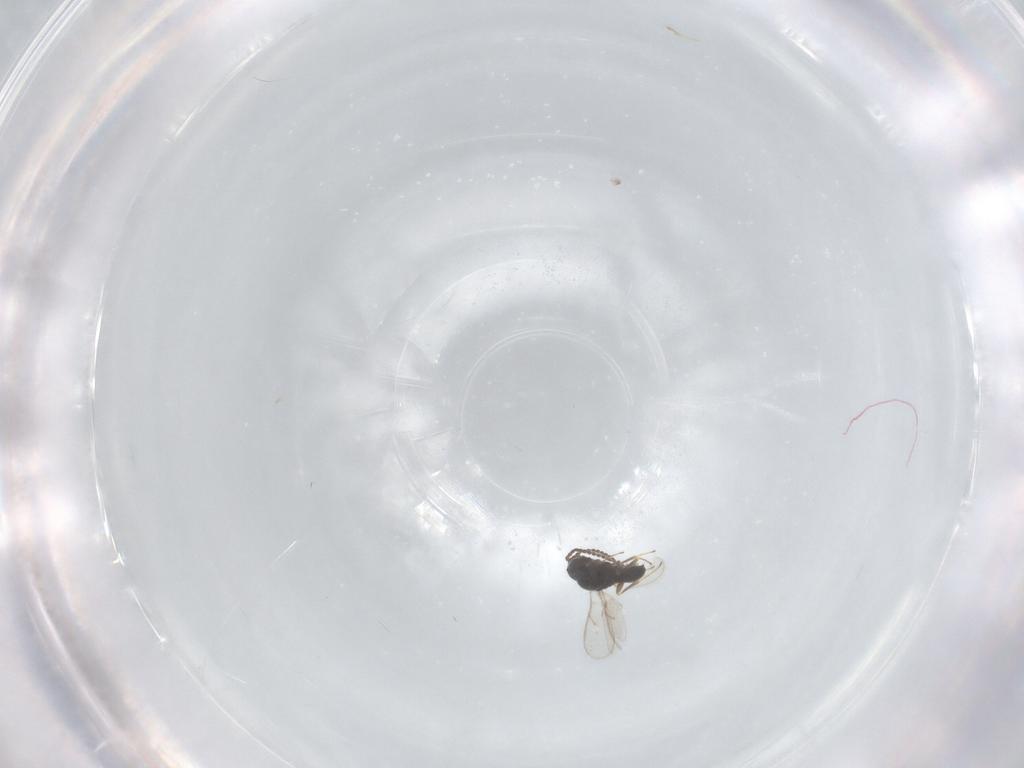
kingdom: Animalia
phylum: Arthropoda
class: Insecta
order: Hymenoptera
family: Scelionidae
